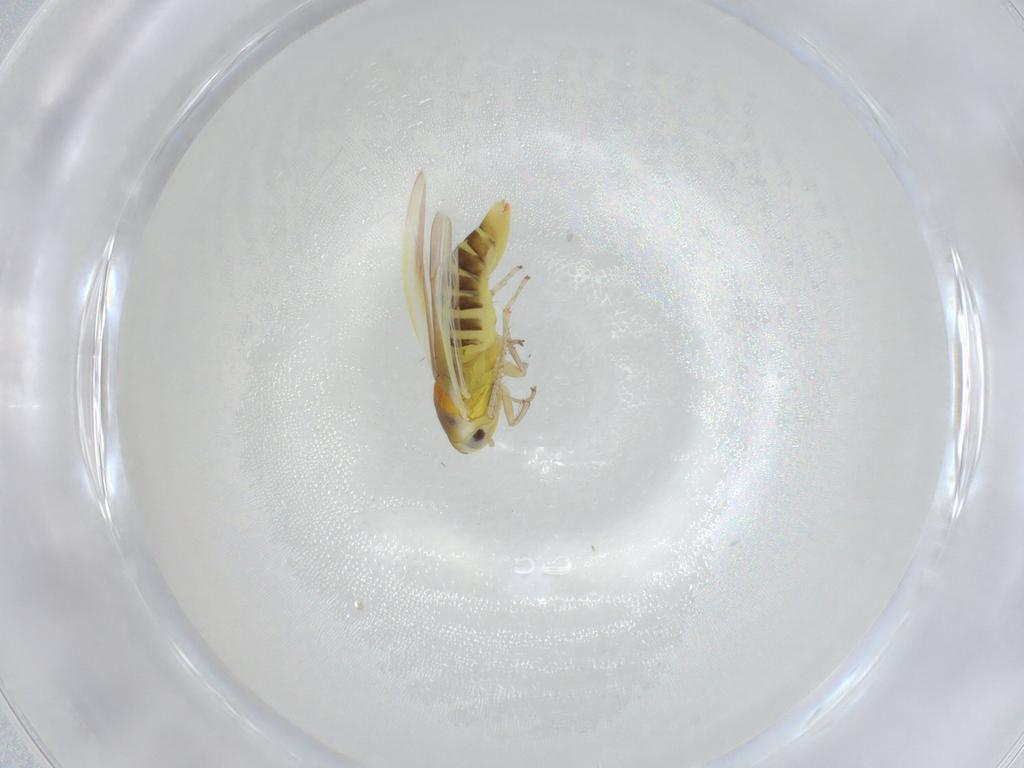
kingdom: Animalia
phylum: Arthropoda
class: Insecta
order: Hemiptera
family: Cicadellidae
